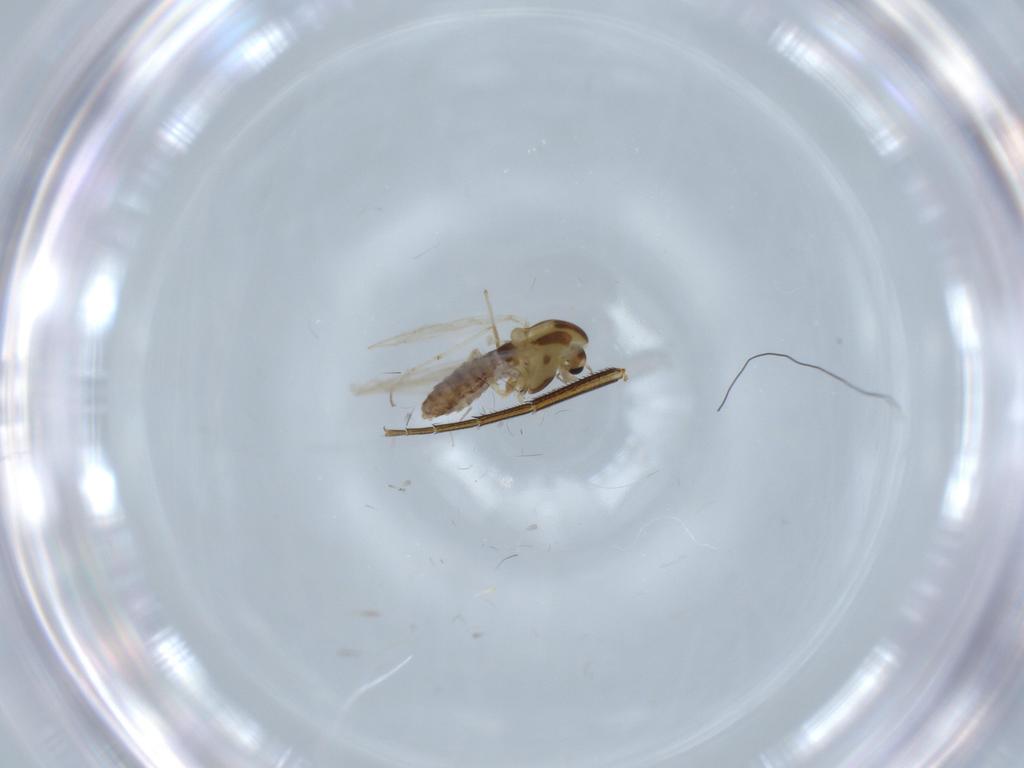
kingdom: Animalia
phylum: Arthropoda
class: Insecta
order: Diptera
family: Chironomidae
